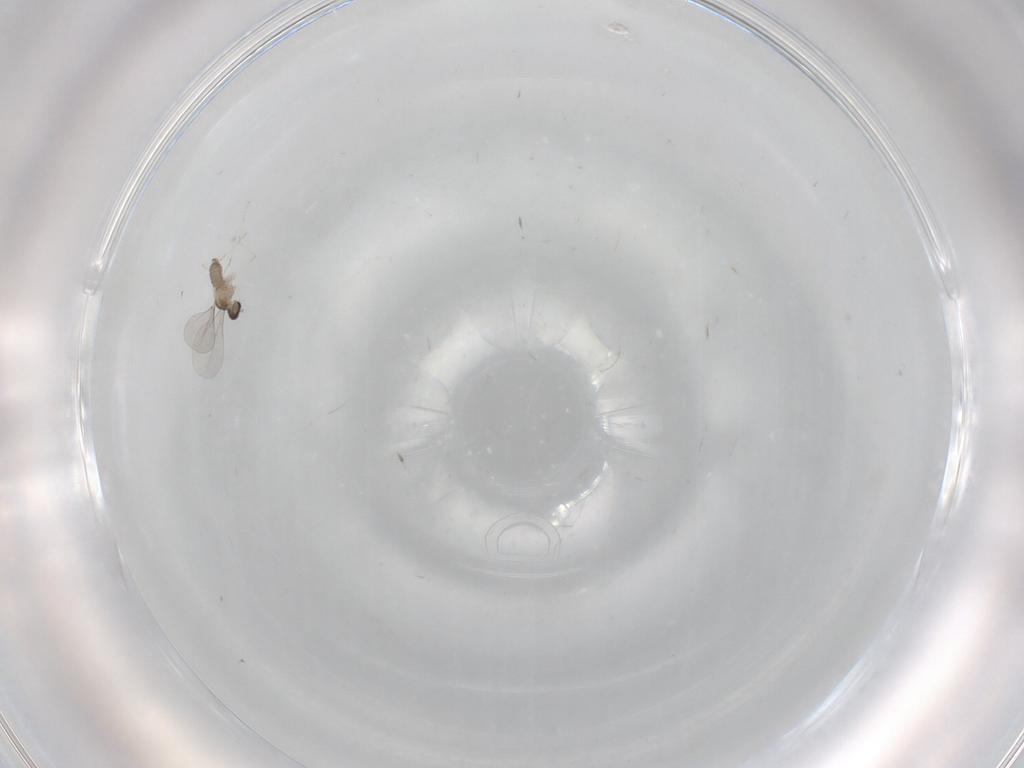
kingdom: Animalia
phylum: Arthropoda
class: Insecta
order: Diptera
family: Cecidomyiidae
